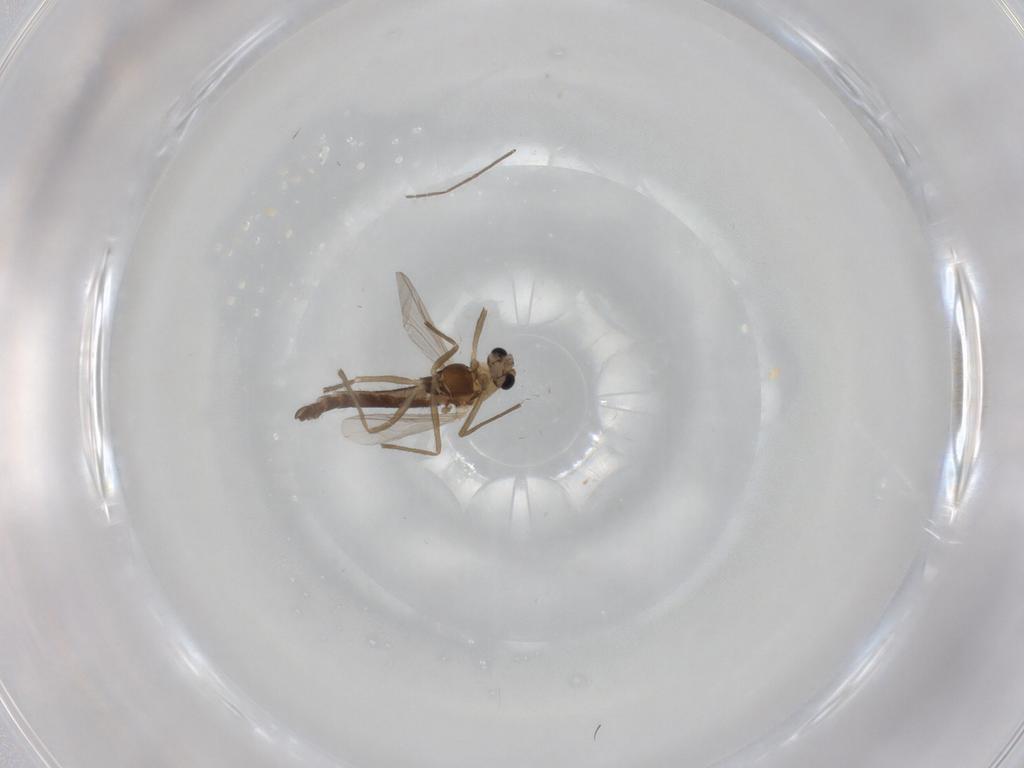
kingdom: Animalia
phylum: Arthropoda
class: Insecta
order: Diptera
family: Chironomidae
